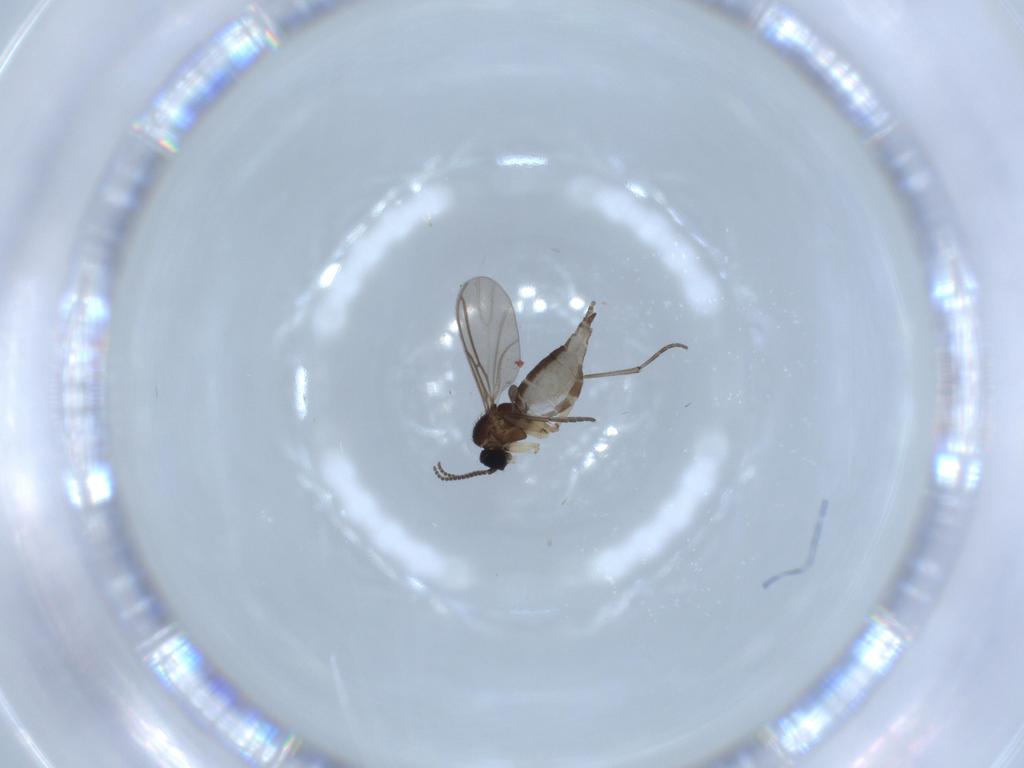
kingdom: Animalia
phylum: Arthropoda
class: Insecta
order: Diptera
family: Sciaridae
